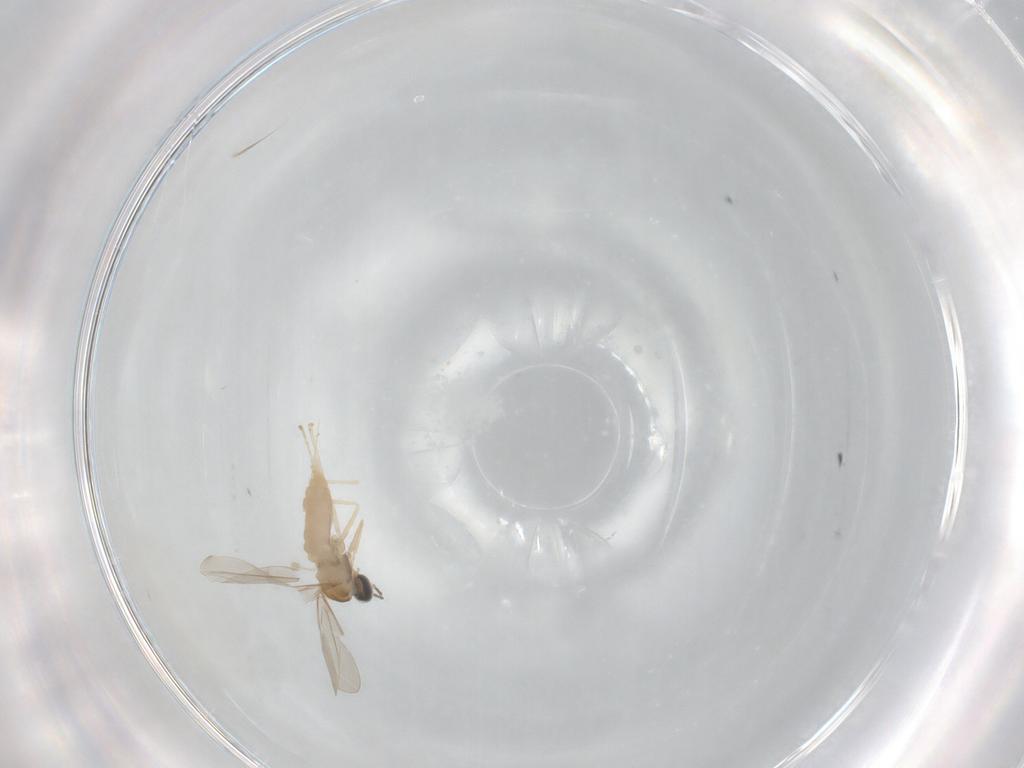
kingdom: Animalia
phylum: Arthropoda
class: Insecta
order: Diptera
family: Cecidomyiidae
